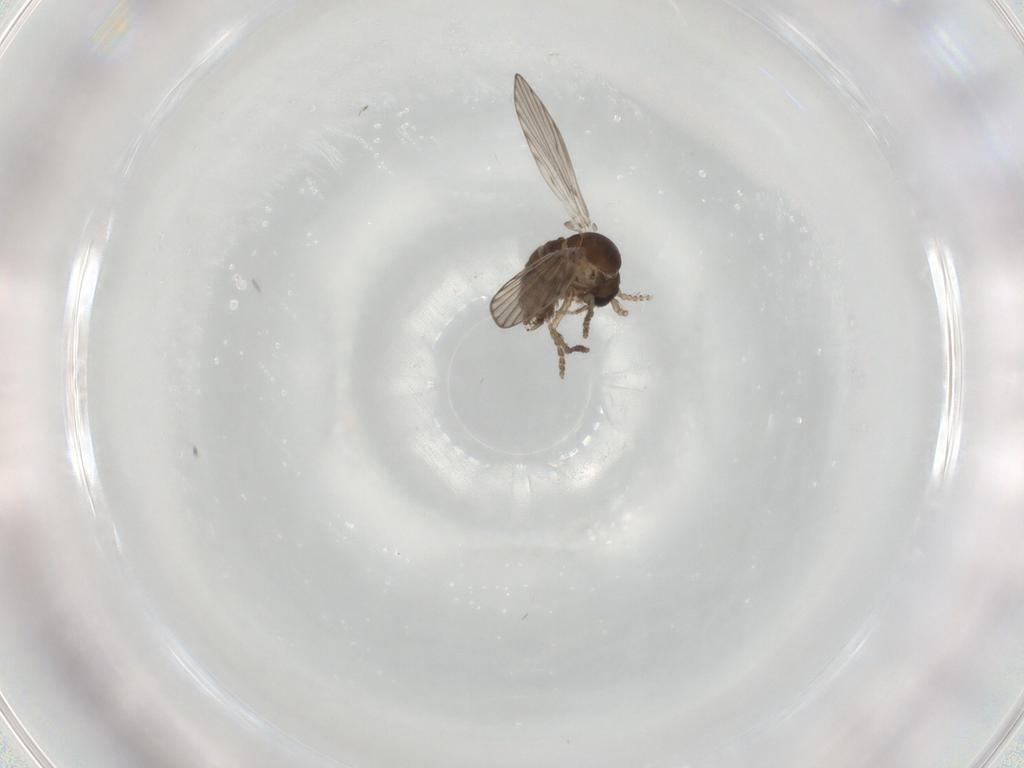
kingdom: Animalia
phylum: Arthropoda
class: Insecta
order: Diptera
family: Psychodidae
